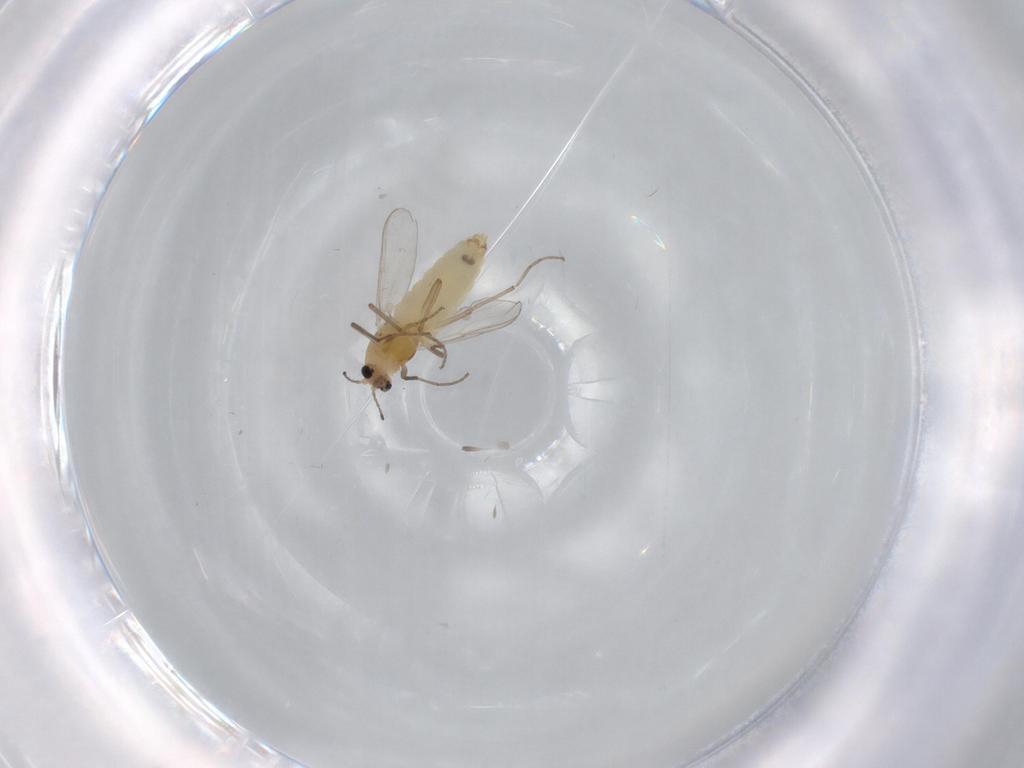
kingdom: Animalia
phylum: Arthropoda
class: Insecta
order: Diptera
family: Chironomidae
